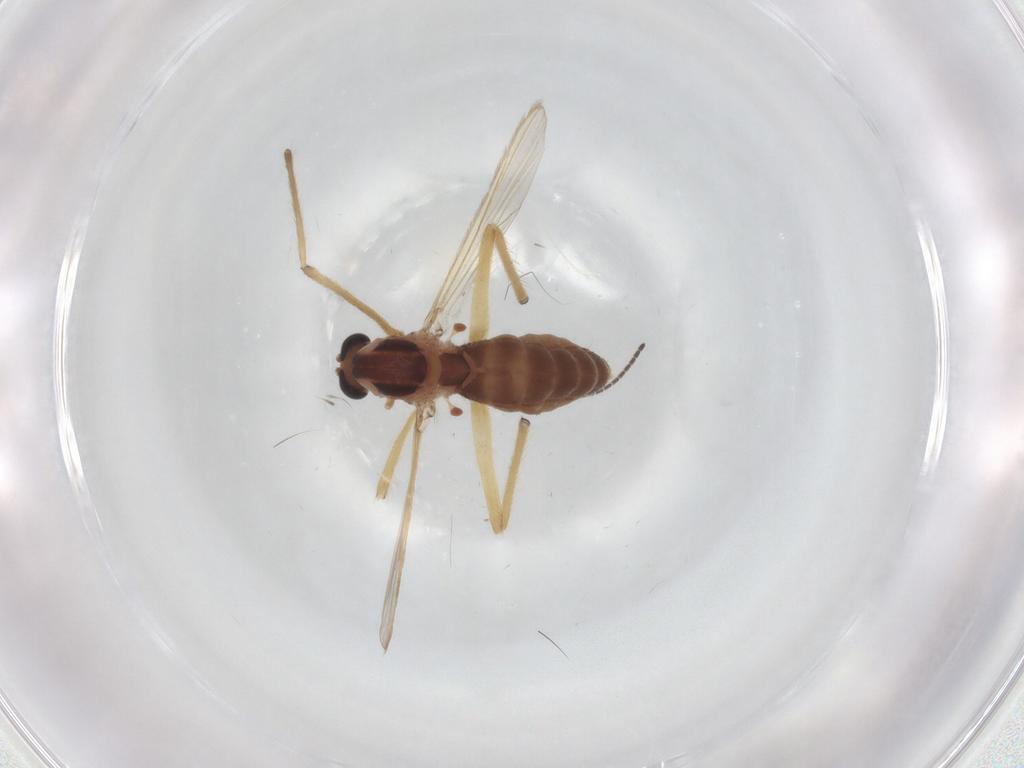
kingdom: Animalia
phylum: Arthropoda
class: Insecta
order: Diptera
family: Chironomidae
